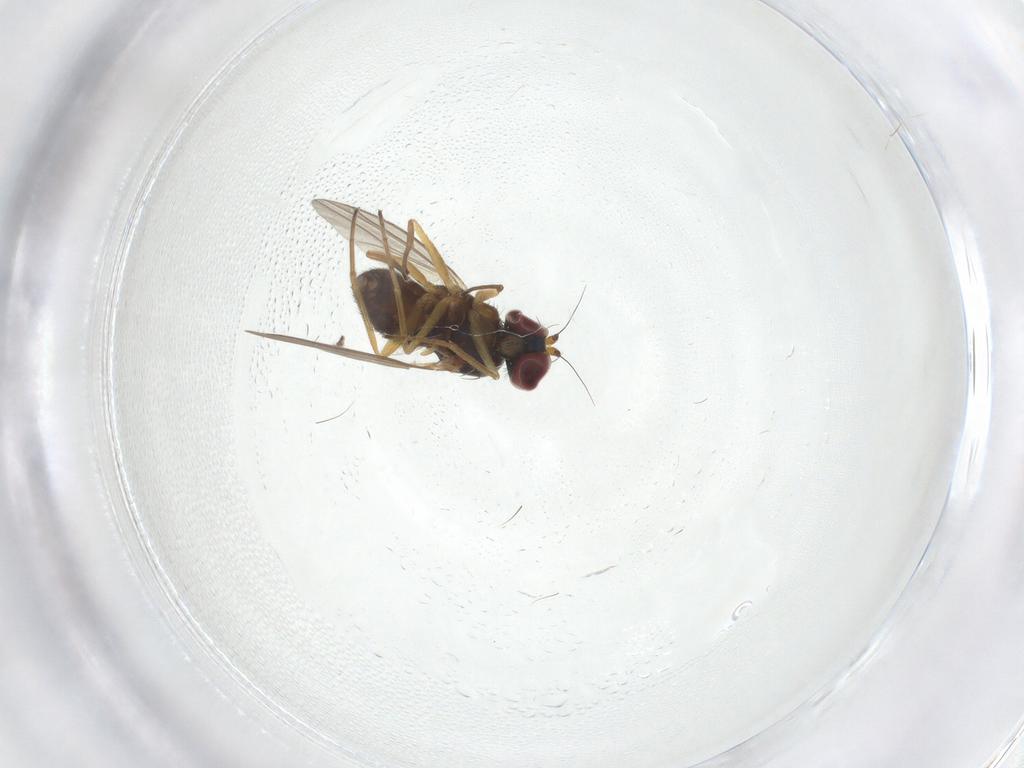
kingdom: Animalia
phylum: Arthropoda
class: Insecta
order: Diptera
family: Dolichopodidae
